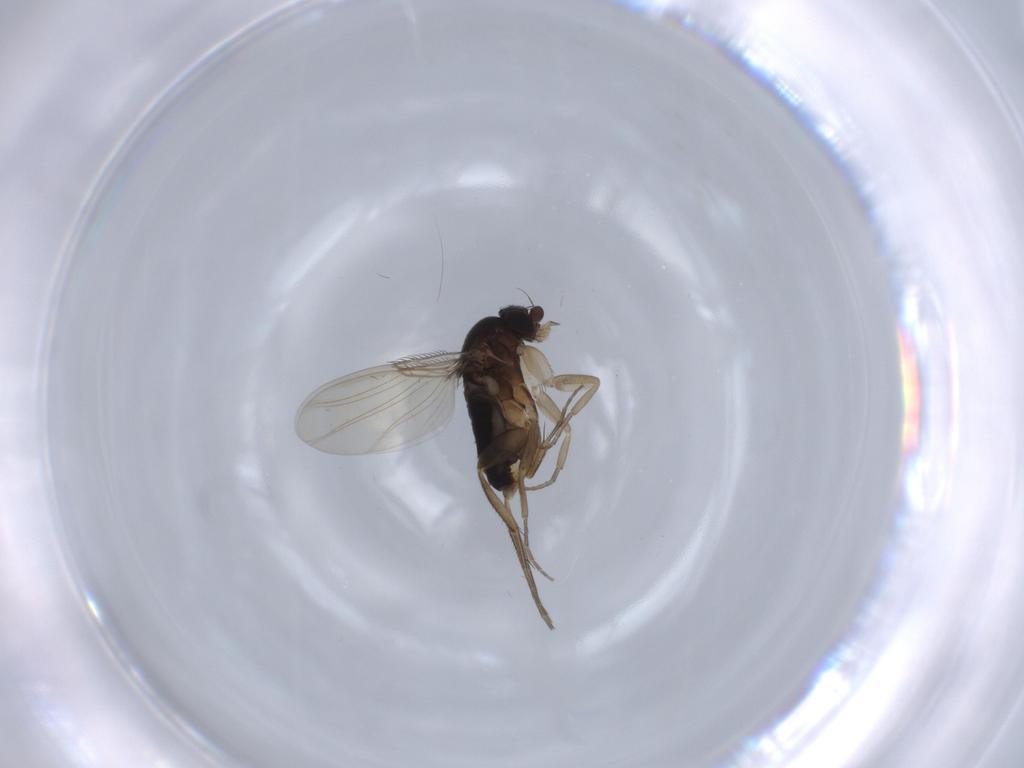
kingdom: Animalia
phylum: Arthropoda
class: Insecta
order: Diptera
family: Phoridae
